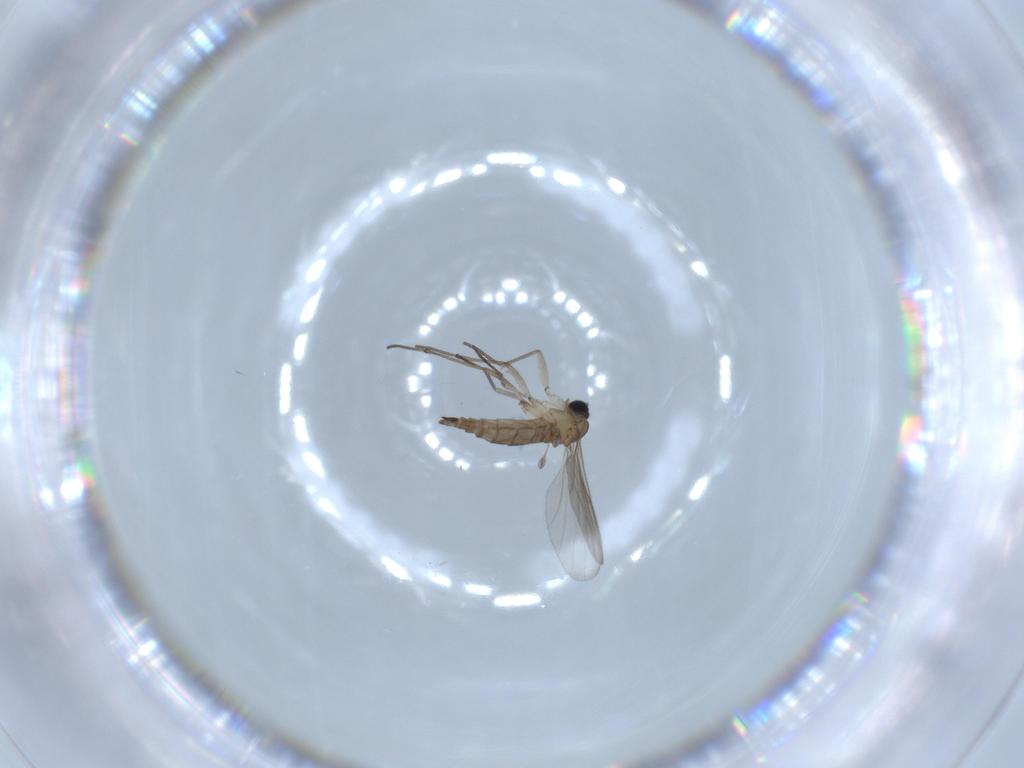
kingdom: Animalia
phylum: Arthropoda
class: Insecta
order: Diptera
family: Sciaridae
